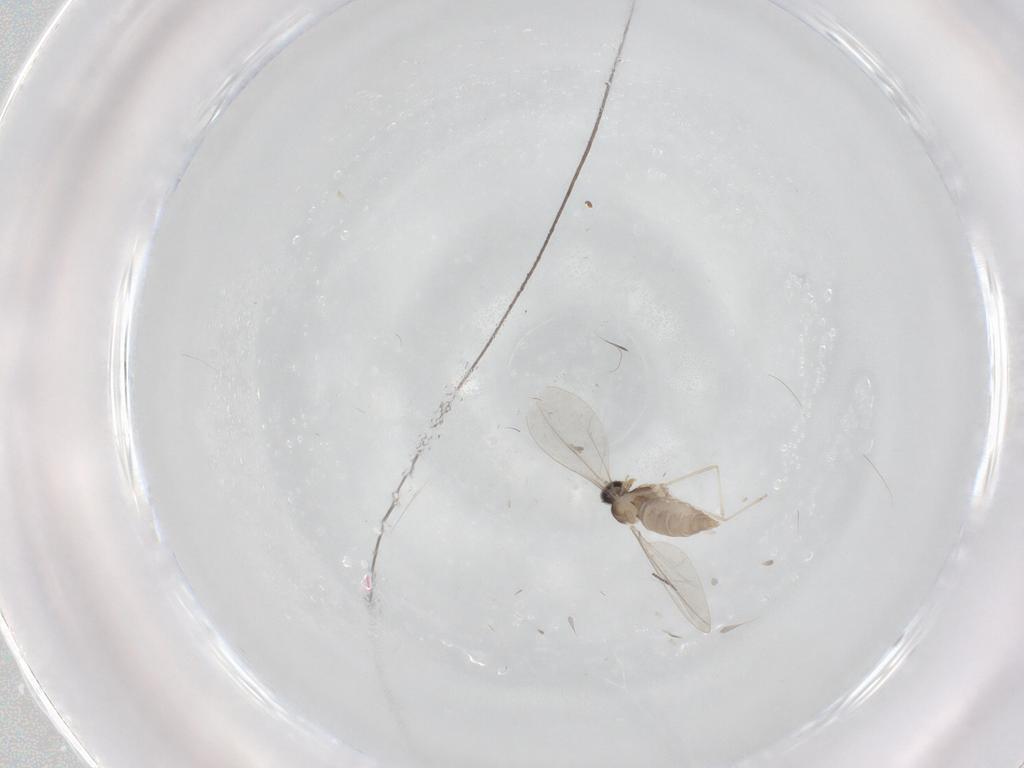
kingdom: Animalia
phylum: Arthropoda
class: Insecta
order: Diptera
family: Ceratopogonidae
